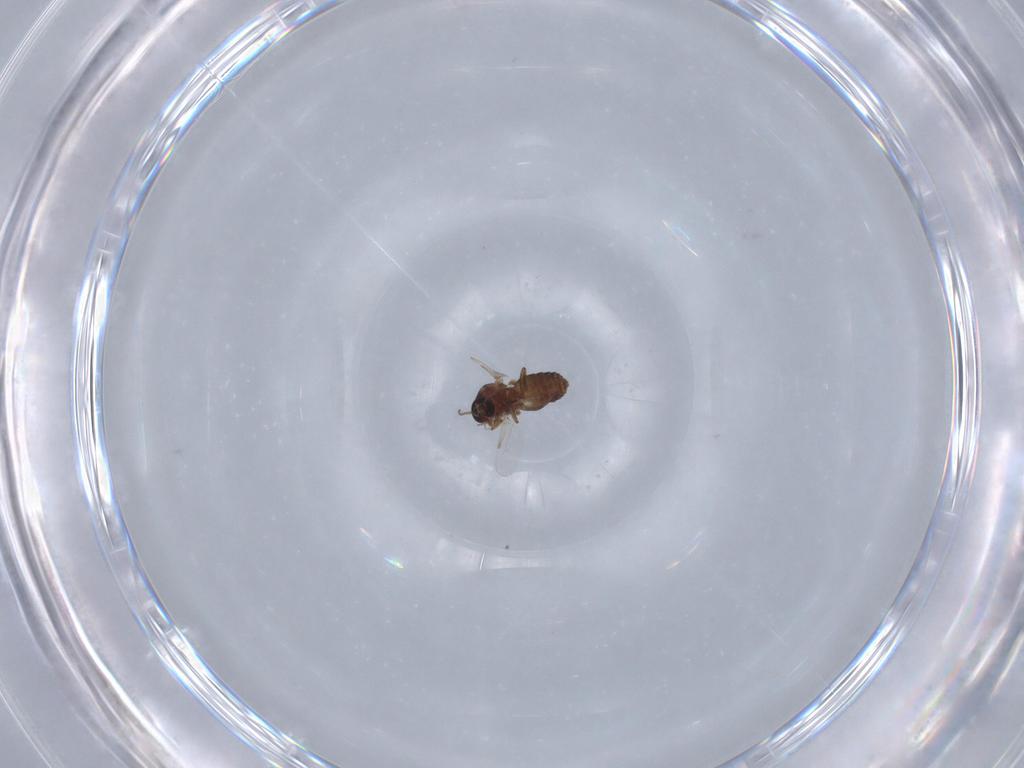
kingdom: Animalia
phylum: Arthropoda
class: Insecta
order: Diptera
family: Ceratopogonidae
